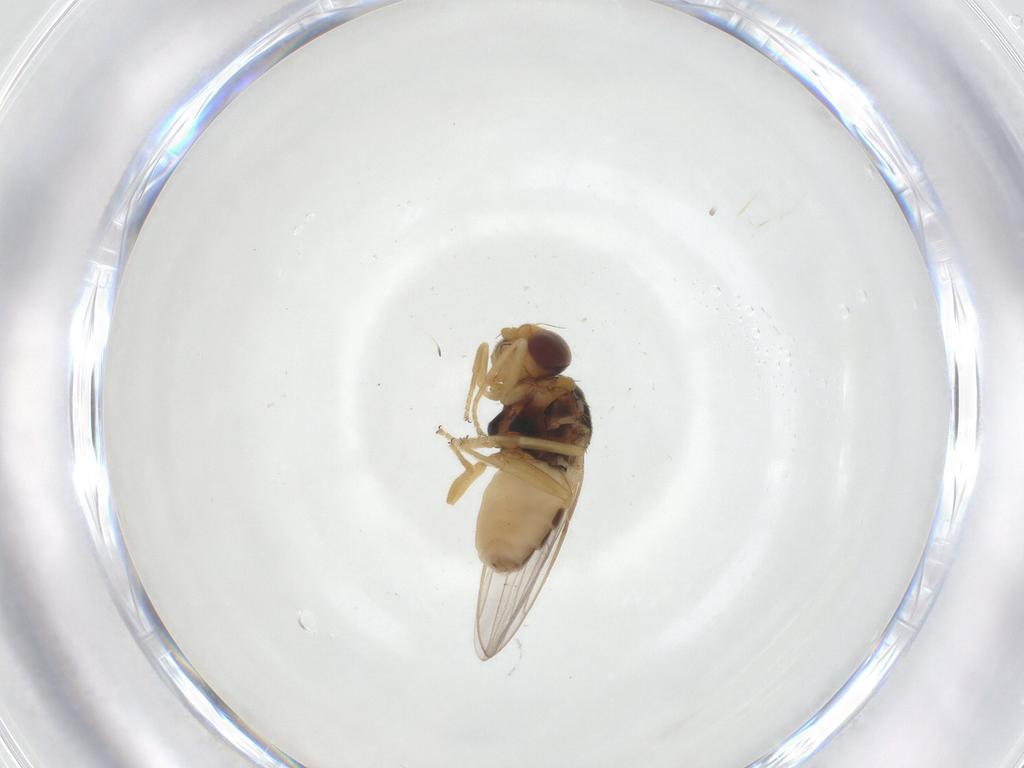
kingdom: Animalia
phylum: Arthropoda
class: Insecta
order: Diptera
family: Chloropidae
